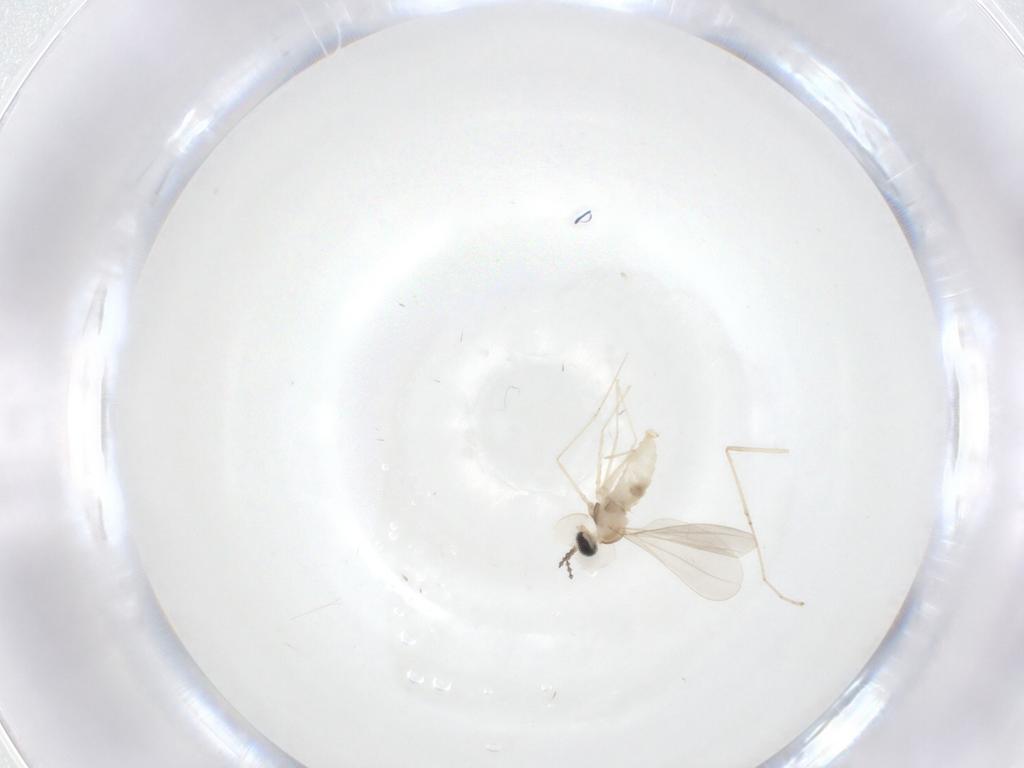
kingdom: Animalia
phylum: Arthropoda
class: Insecta
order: Diptera
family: Cecidomyiidae
